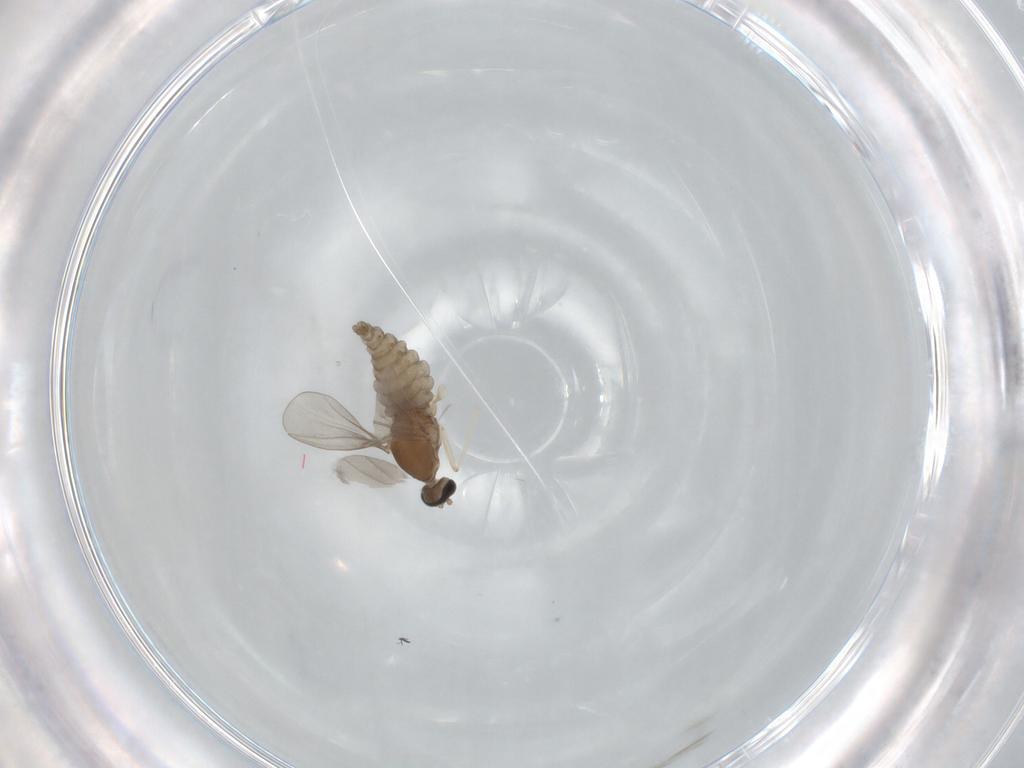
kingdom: Animalia
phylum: Arthropoda
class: Insecta
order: Diptera
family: Cecidomyiidae
